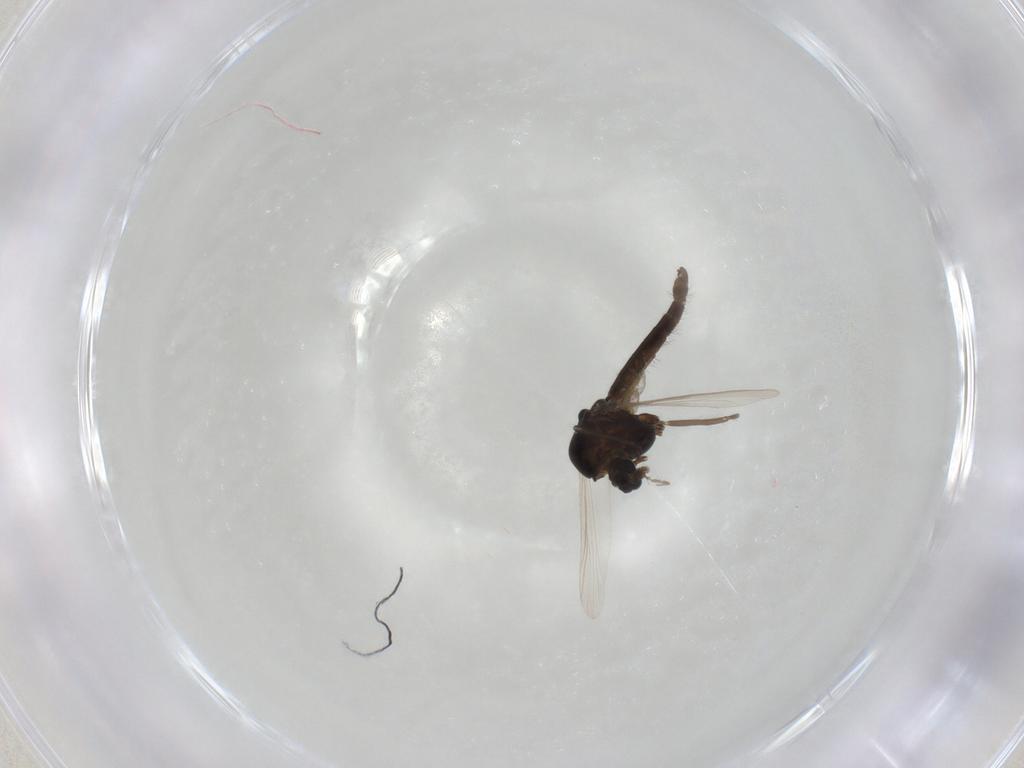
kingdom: Animalia
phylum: Arthropoda
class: Insecta
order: Diptera
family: Chironomidae
